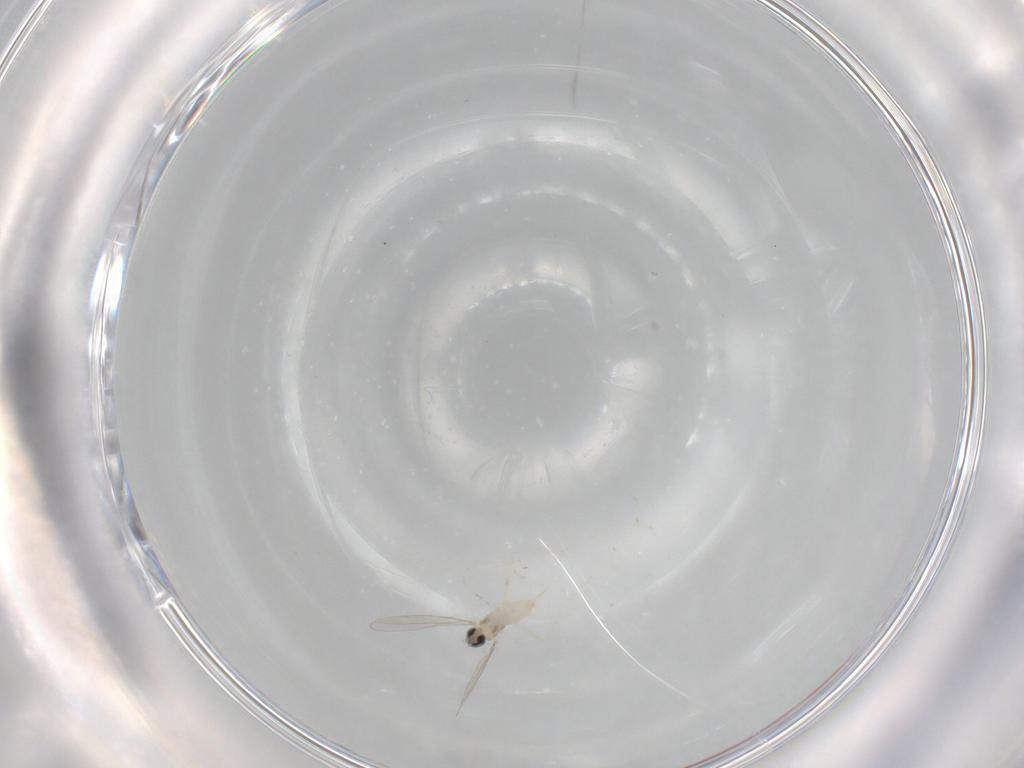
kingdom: Animalia
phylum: Arthropoda
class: Insecta
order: Diptera
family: Cecidomyiidae
